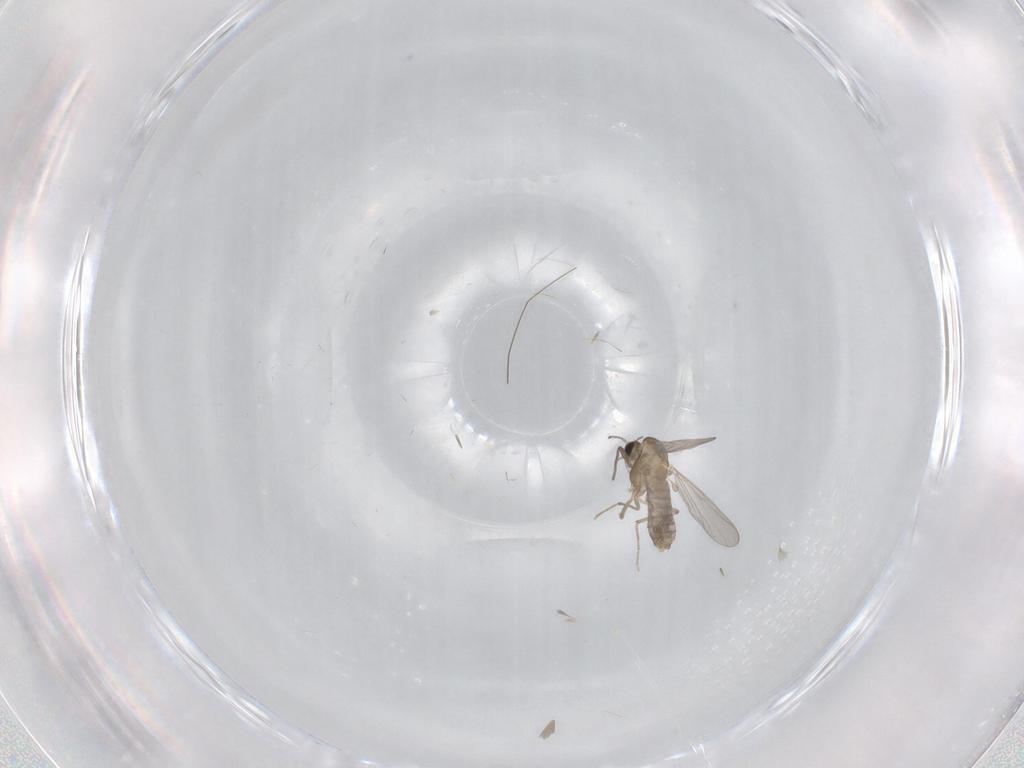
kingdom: Animalia
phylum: Arthropoda
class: Insecta
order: Diptera
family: Chironomidae
